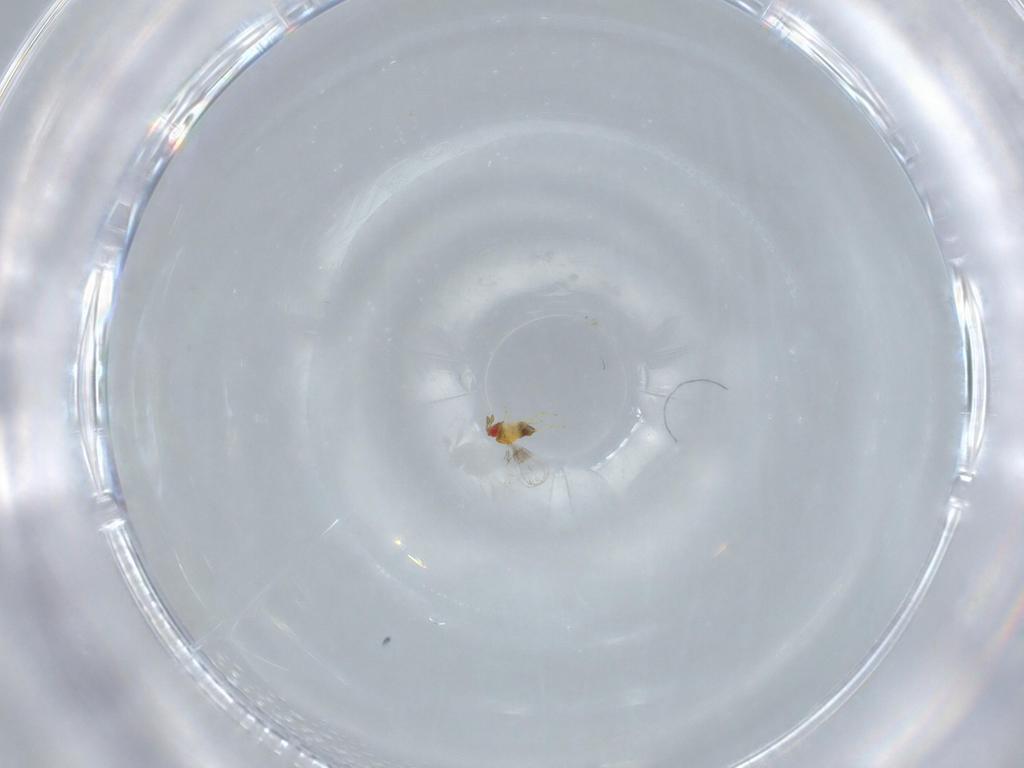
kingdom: Animalia
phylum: Arthropoda
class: Insecta
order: Hymenoptera
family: Trichogrammatidae
